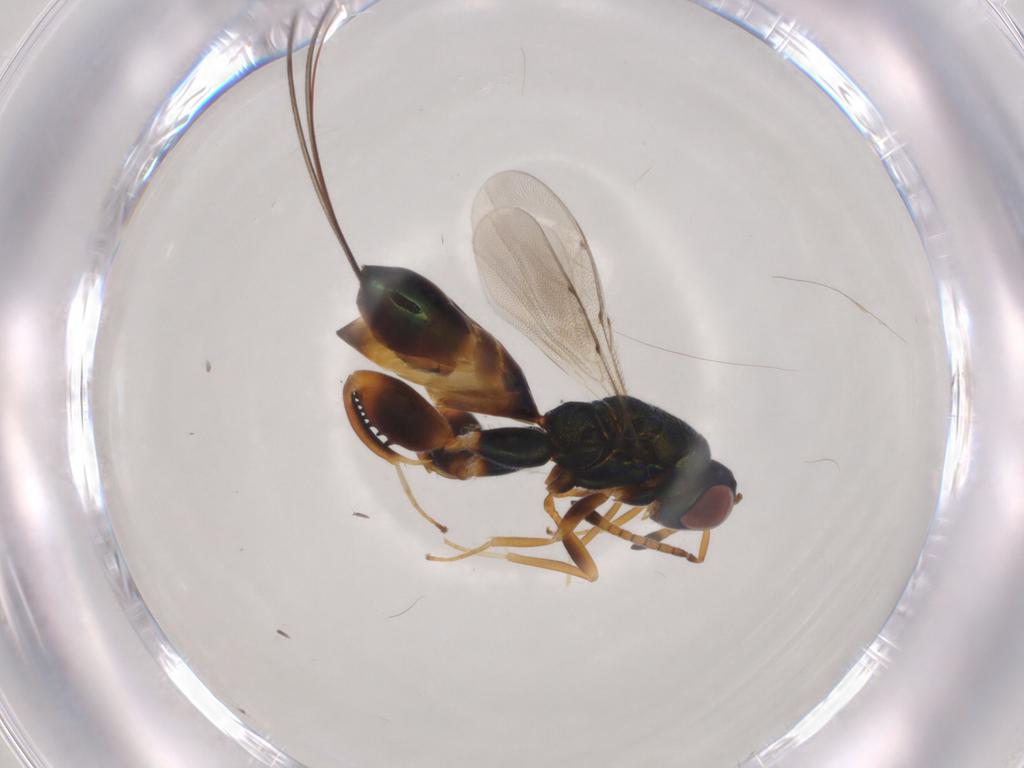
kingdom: Animalia
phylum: Arthropoda
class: Insecta
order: Hymenoptera
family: Torymidae
